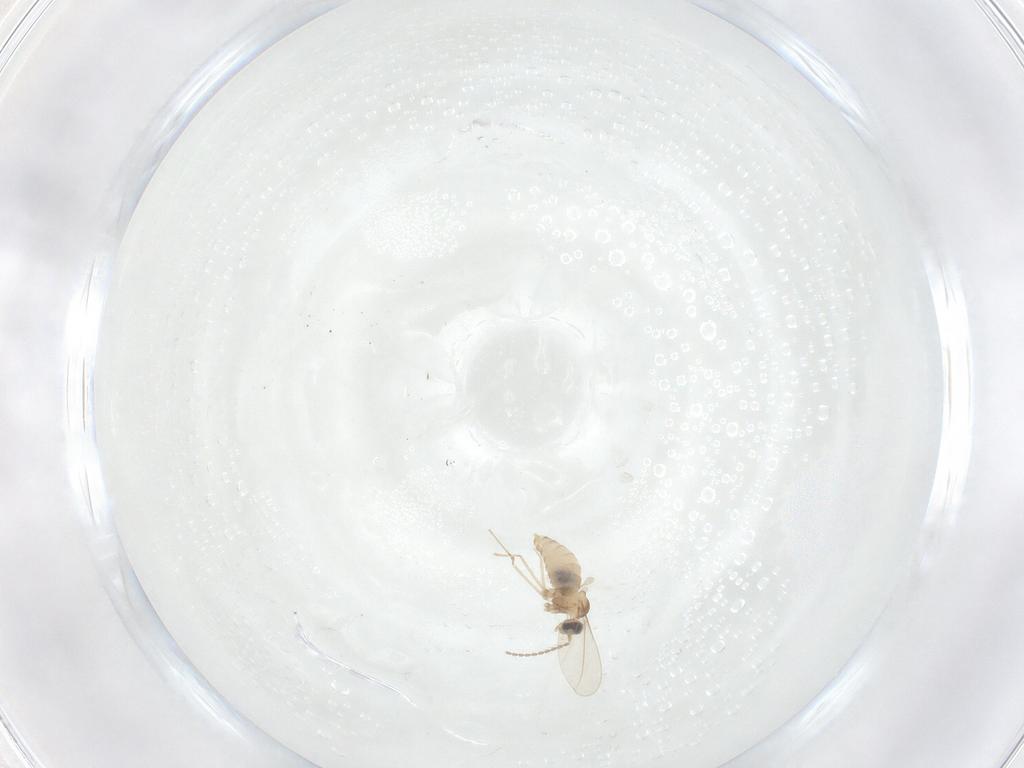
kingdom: Animalia
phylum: Arthropoda
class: Insecta
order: Diptera
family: Cecidomyiidae
